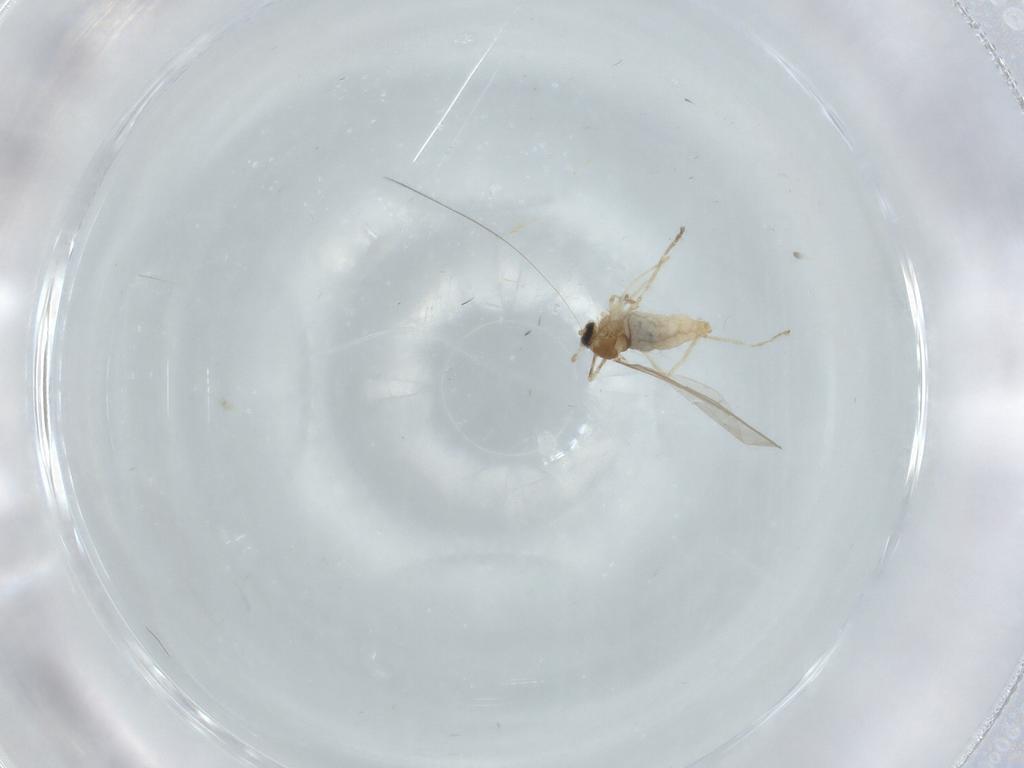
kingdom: Animalia
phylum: Arthropoda
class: Insecta
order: Diptera
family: Cecidomyiidae
